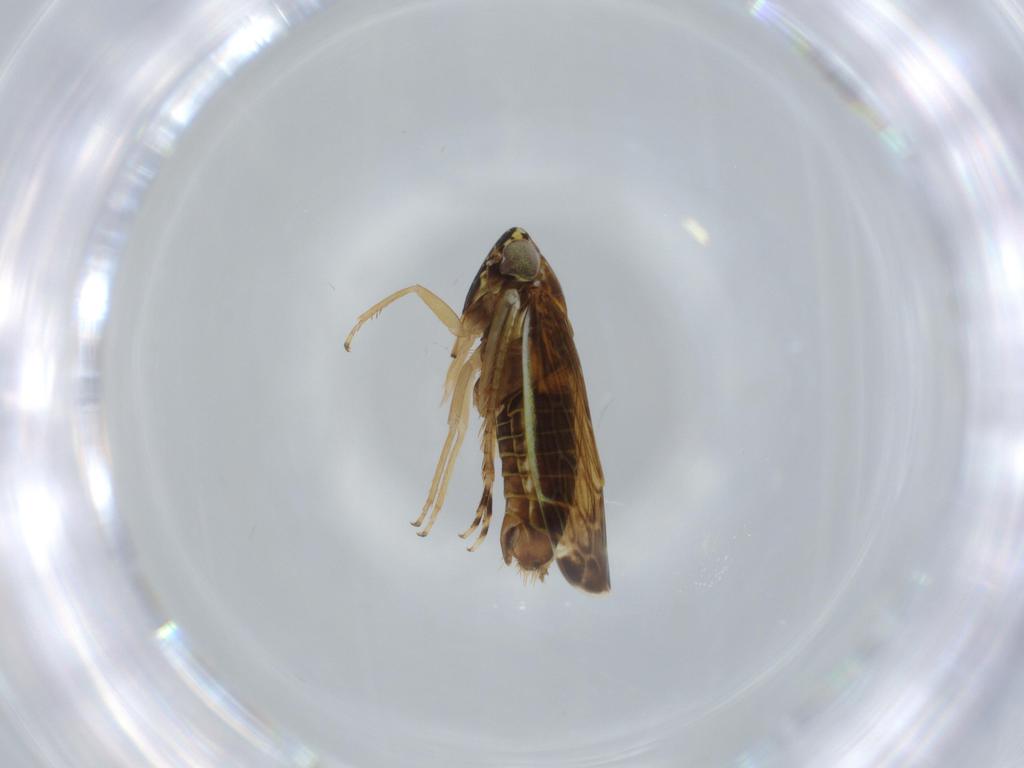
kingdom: Animalia
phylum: Arthropoda
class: Insecta
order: Hemiptera
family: Cicadellidae
